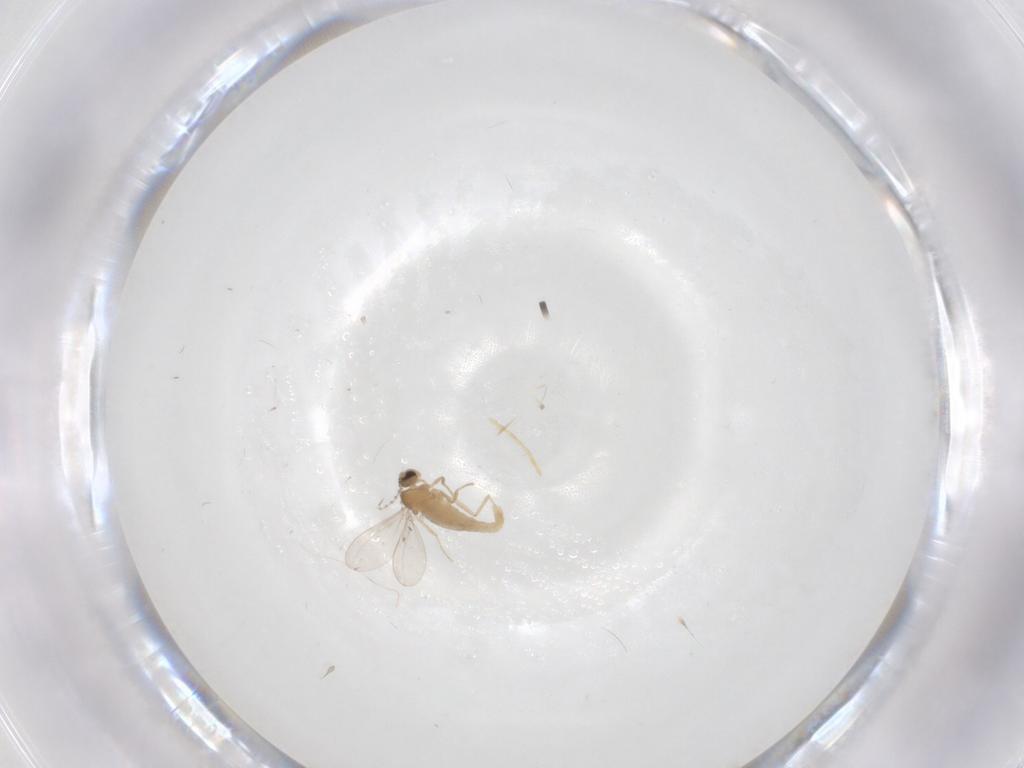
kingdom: Animalia
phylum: Arthropoda
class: Insecta
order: Diptera
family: Cecidomyiidae
